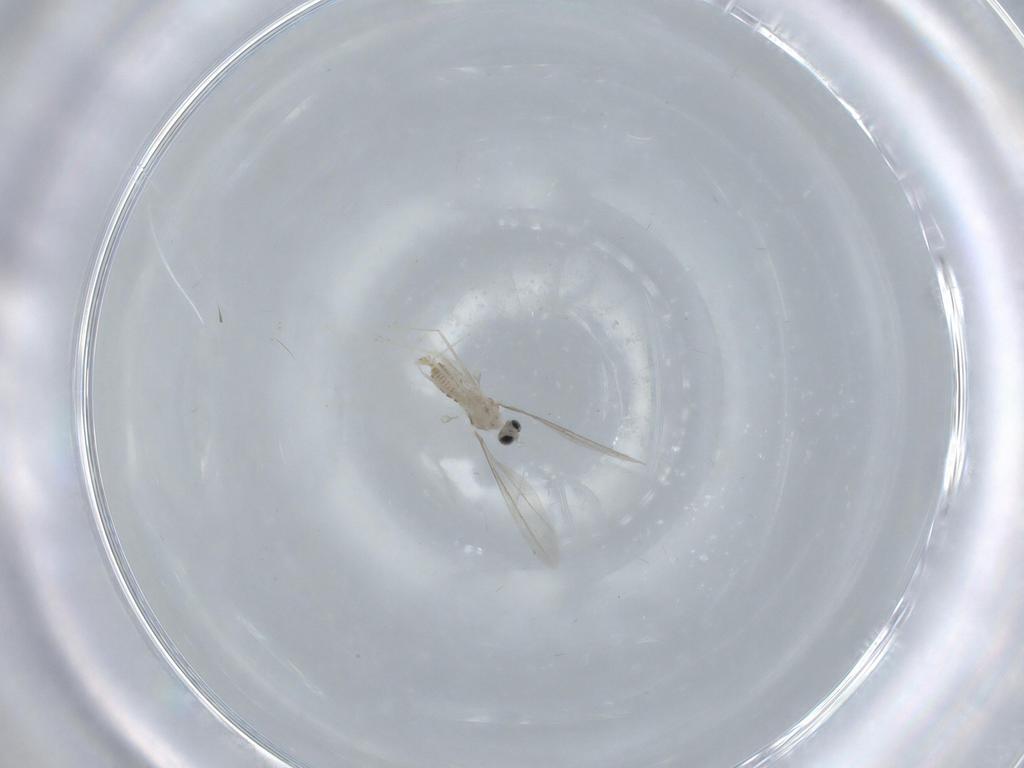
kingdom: Animalia
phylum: Arthropoda
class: Insecta
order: Diptera
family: Cecidomyiidae
